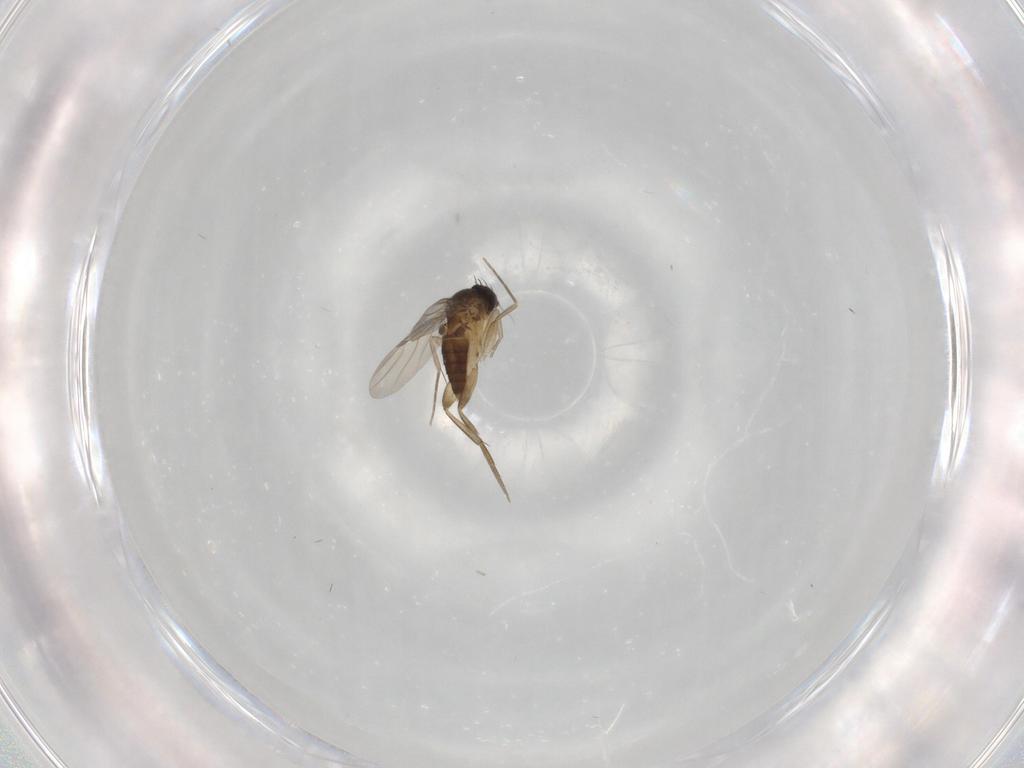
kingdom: Animalia
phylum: Arthropoda
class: Insecta
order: Diptera
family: Phoridae
